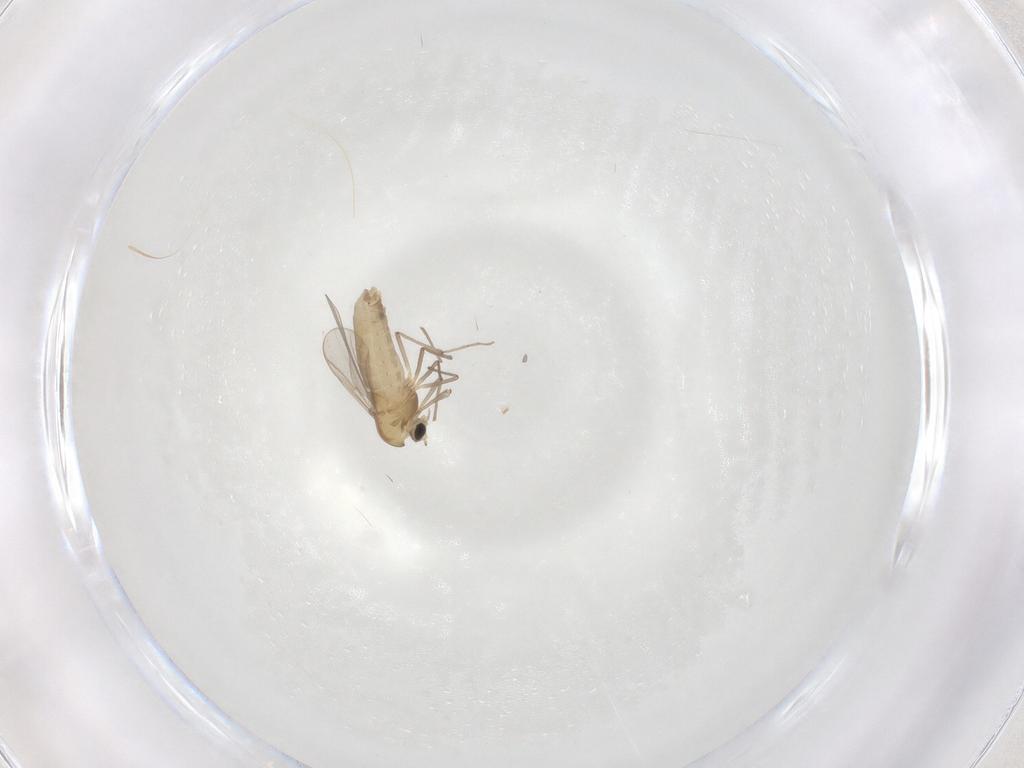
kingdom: Animalia
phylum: Arthropoda
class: Insecta
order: Diptera
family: Chironomidae
